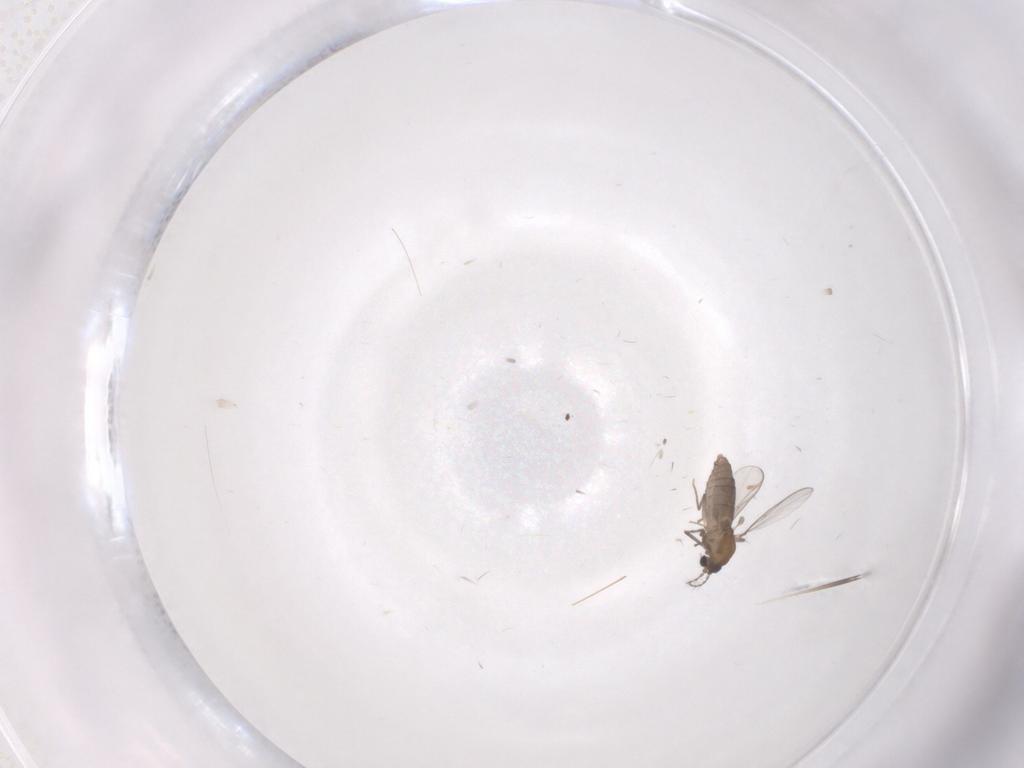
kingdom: Animalia
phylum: Arthropoda
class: Insecta
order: Diptera
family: Chironomidae
